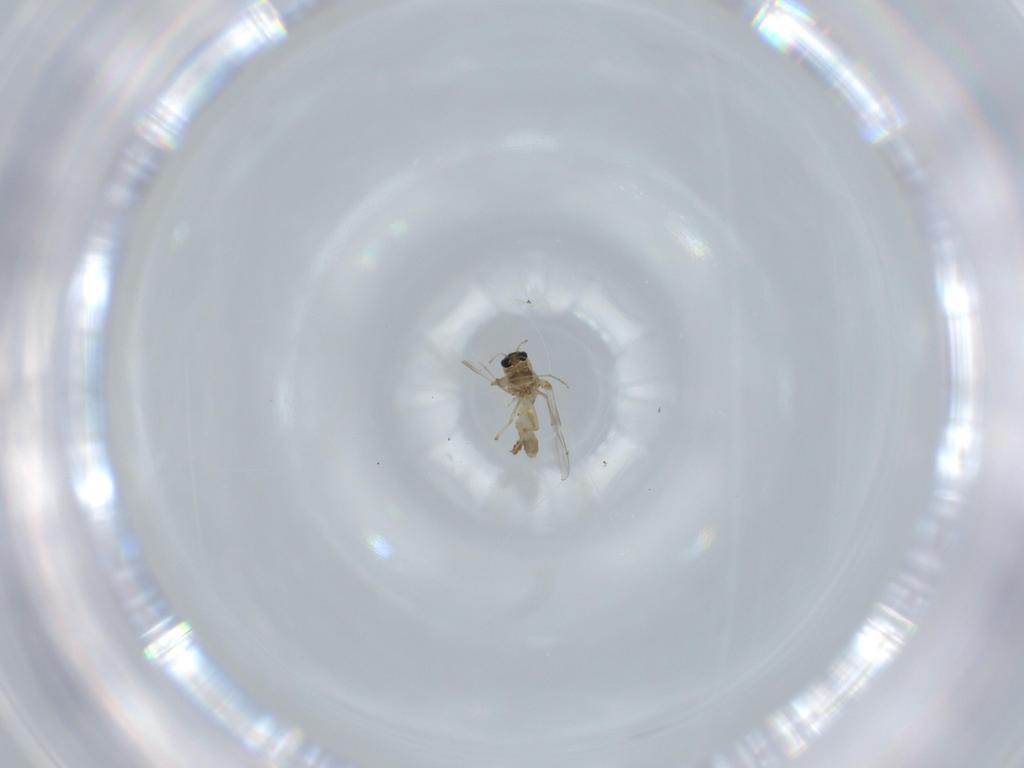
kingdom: Animalia
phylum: Arthropoda
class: Insecta
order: Diptera
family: Chironomidae
